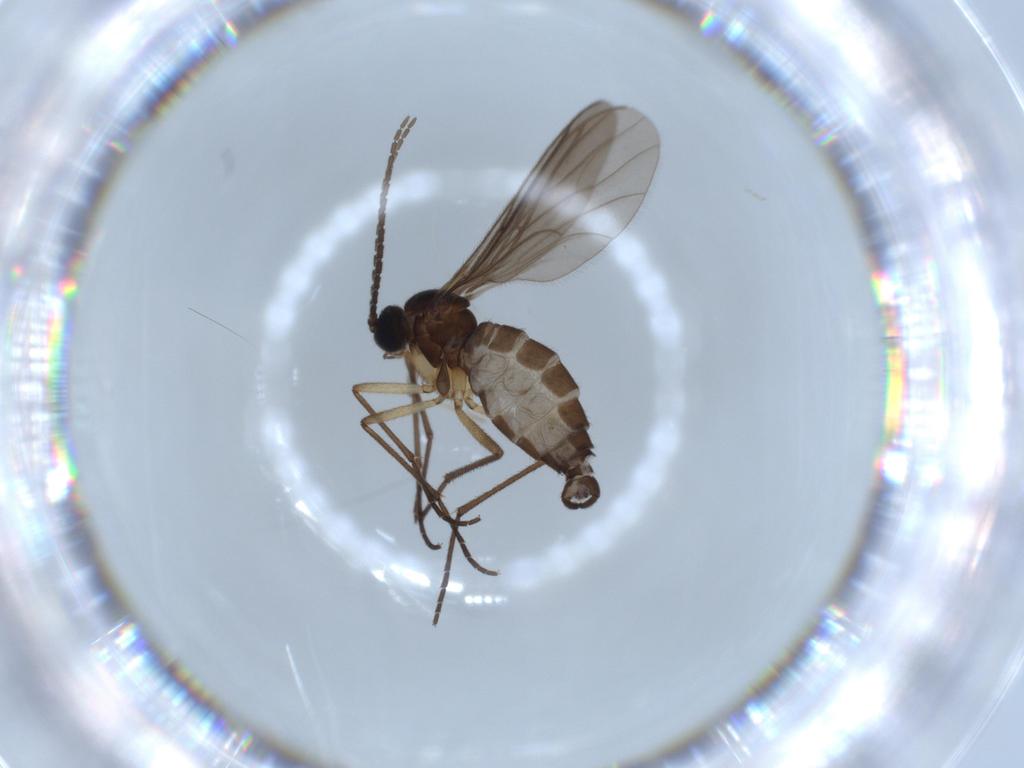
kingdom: Animalia
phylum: Arthropoda
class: Insecta
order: Diptera
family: Sciaridae
